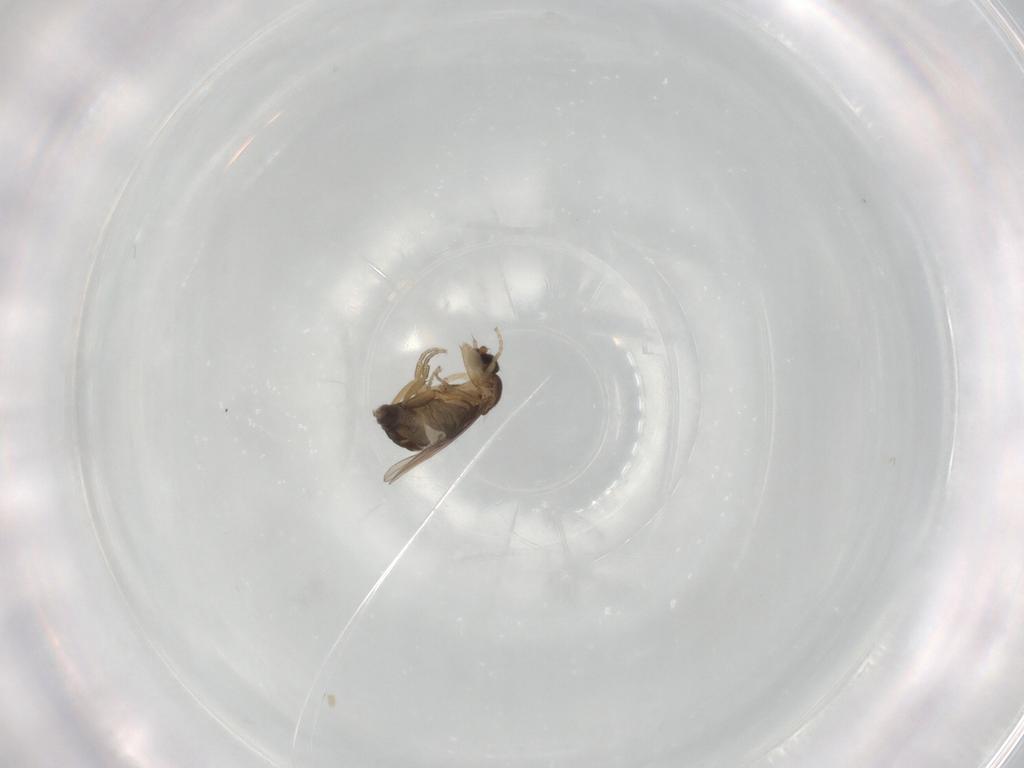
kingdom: Animalia
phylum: Arthropoda
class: Insecta
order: Diptera
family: Phoridae
